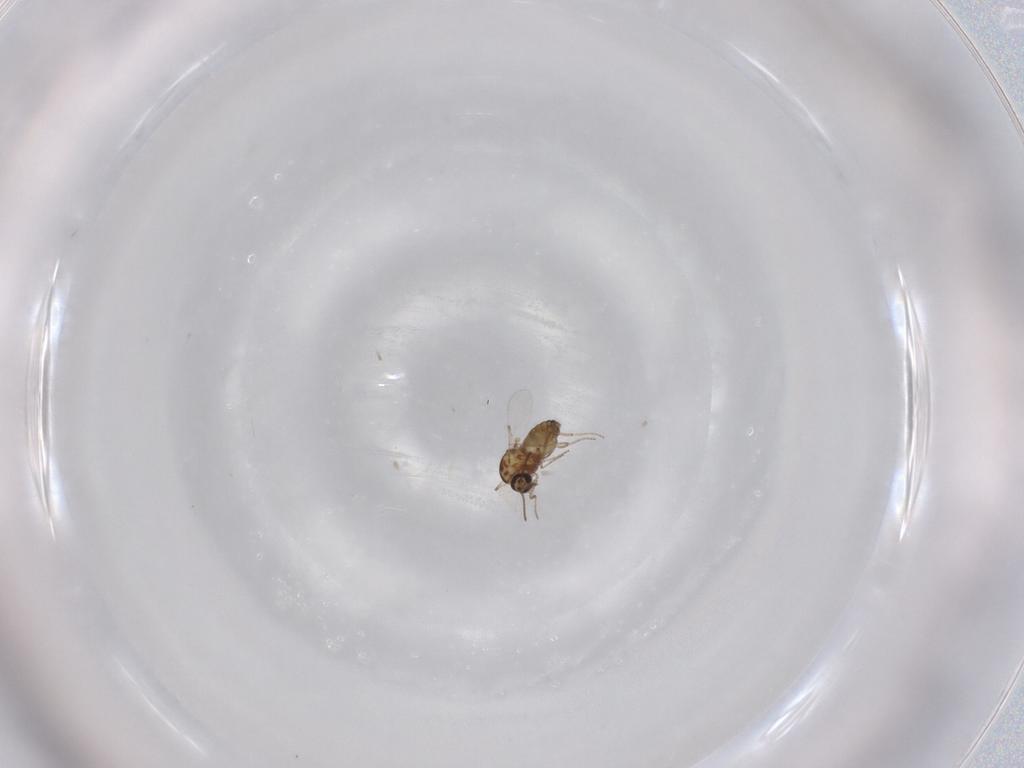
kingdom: Animalia
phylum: Arthropoda
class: Insecta
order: Diptera
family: Ceratopogonidae
